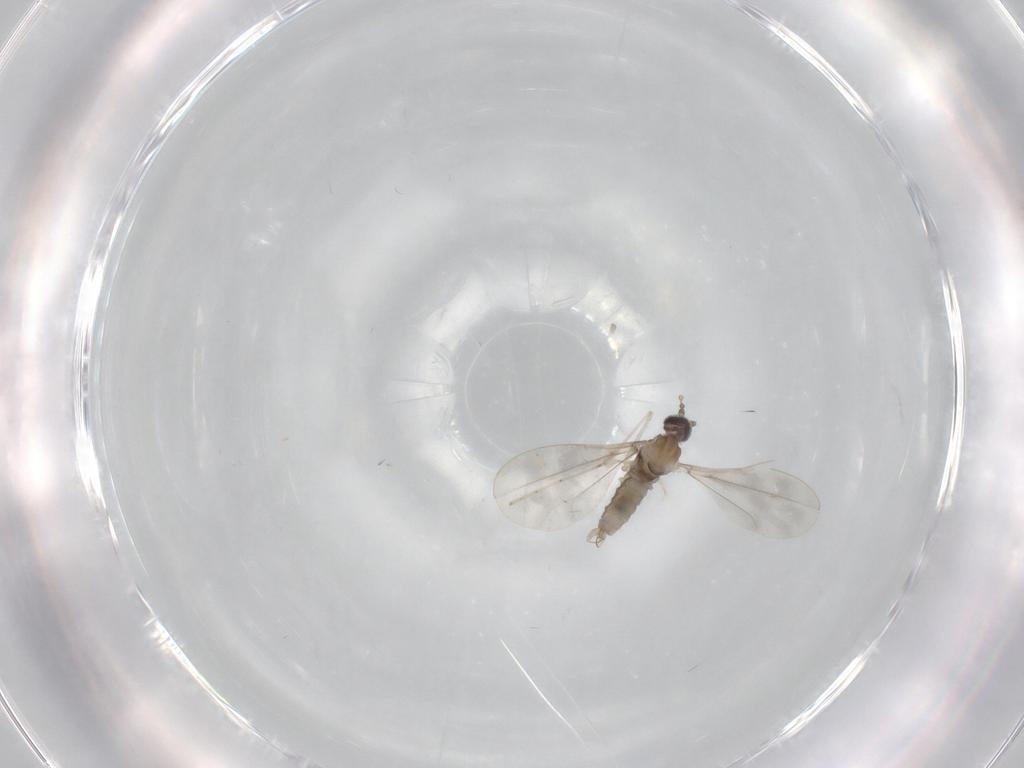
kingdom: Animalia
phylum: Arthropoda
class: Insecta
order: Diptera
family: Cecidomyiidae
